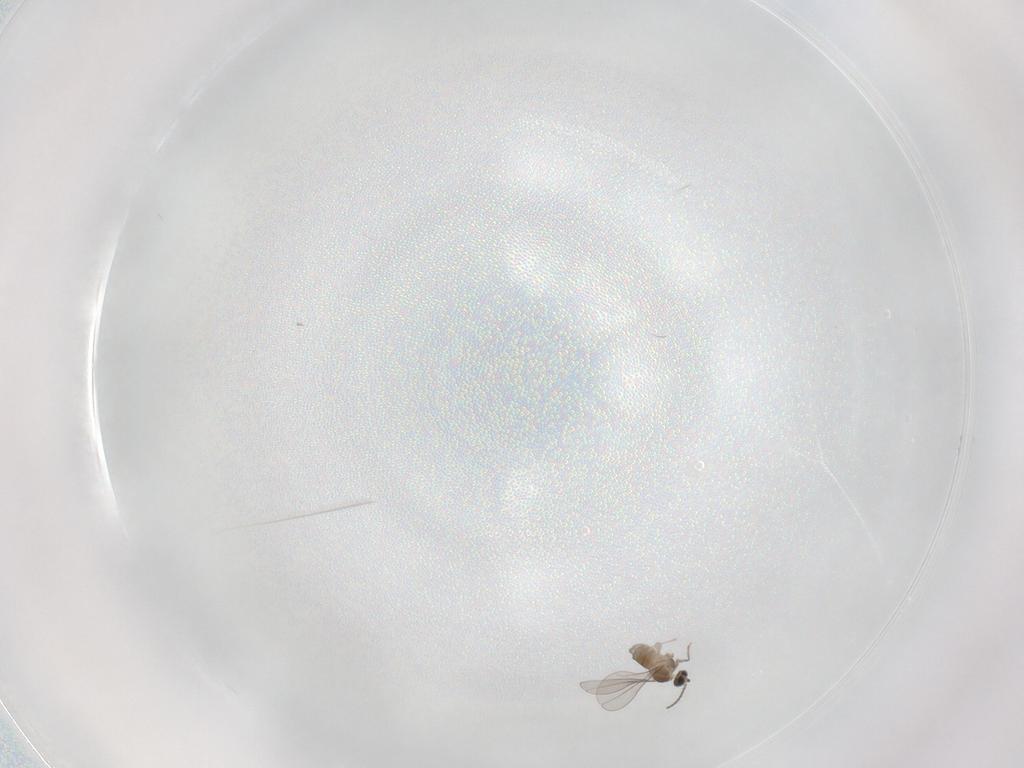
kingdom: Animalia
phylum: Arthropoda
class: Insecta
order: Diptera
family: Cecidomyiidae
